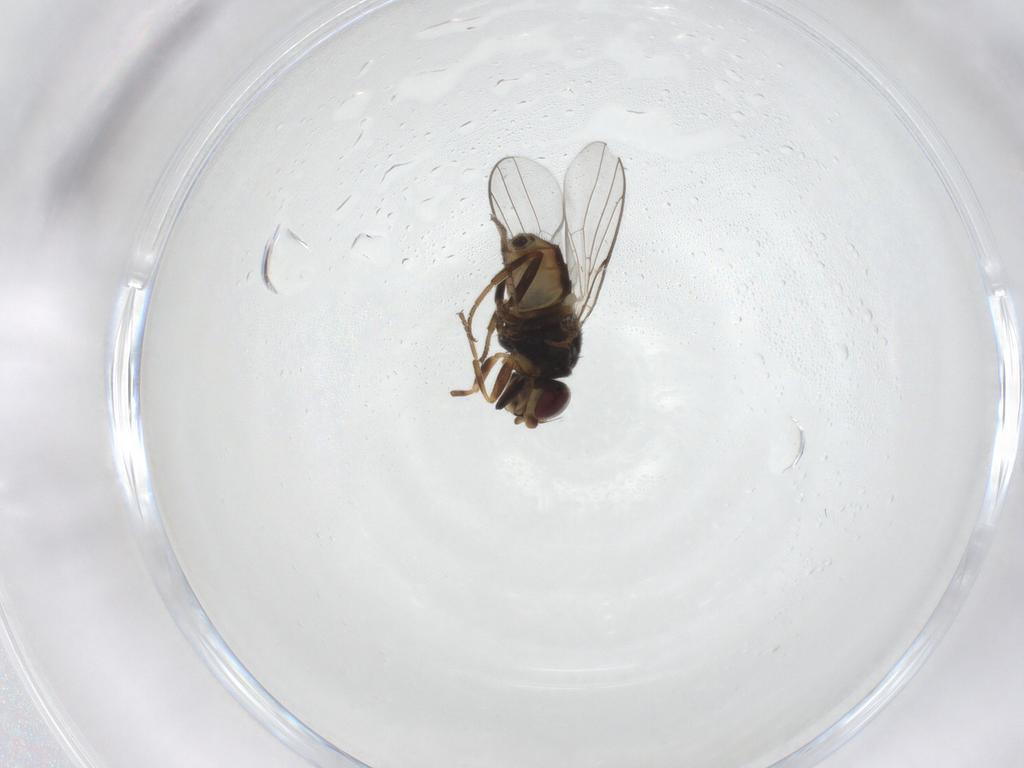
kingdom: Animalia
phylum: Arthropoda
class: Insecta
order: Diptera
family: Chloropidae
